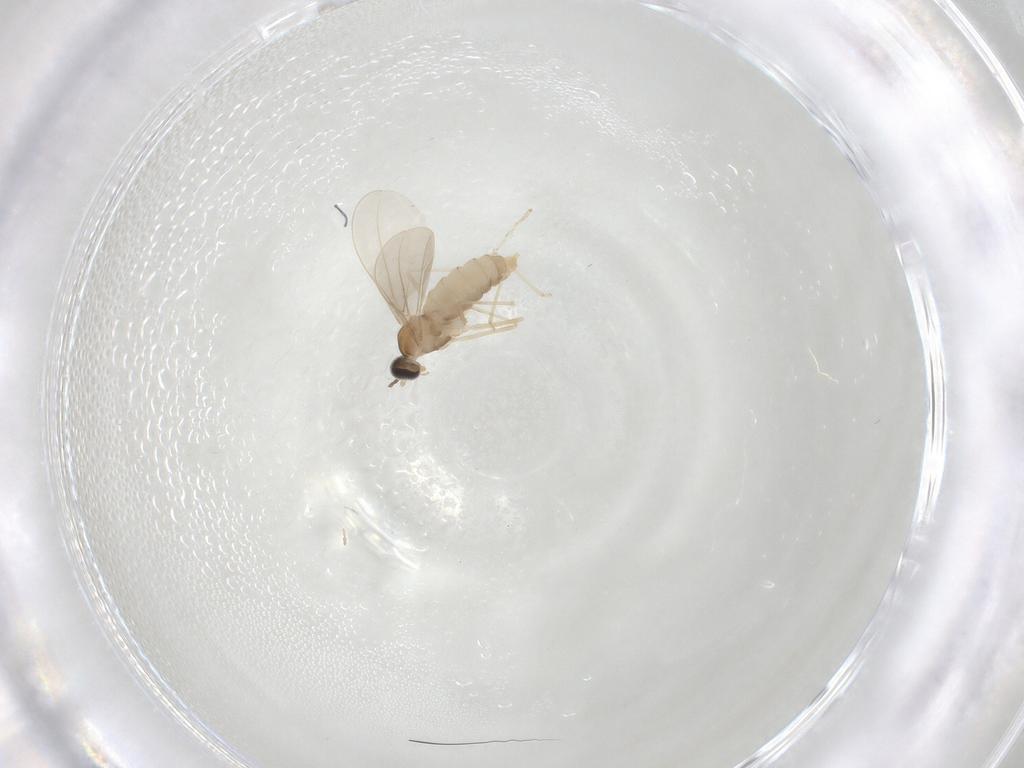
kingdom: Animalia
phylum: Arthropoda
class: Insecta
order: Diptera
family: Cecidomyiidae
